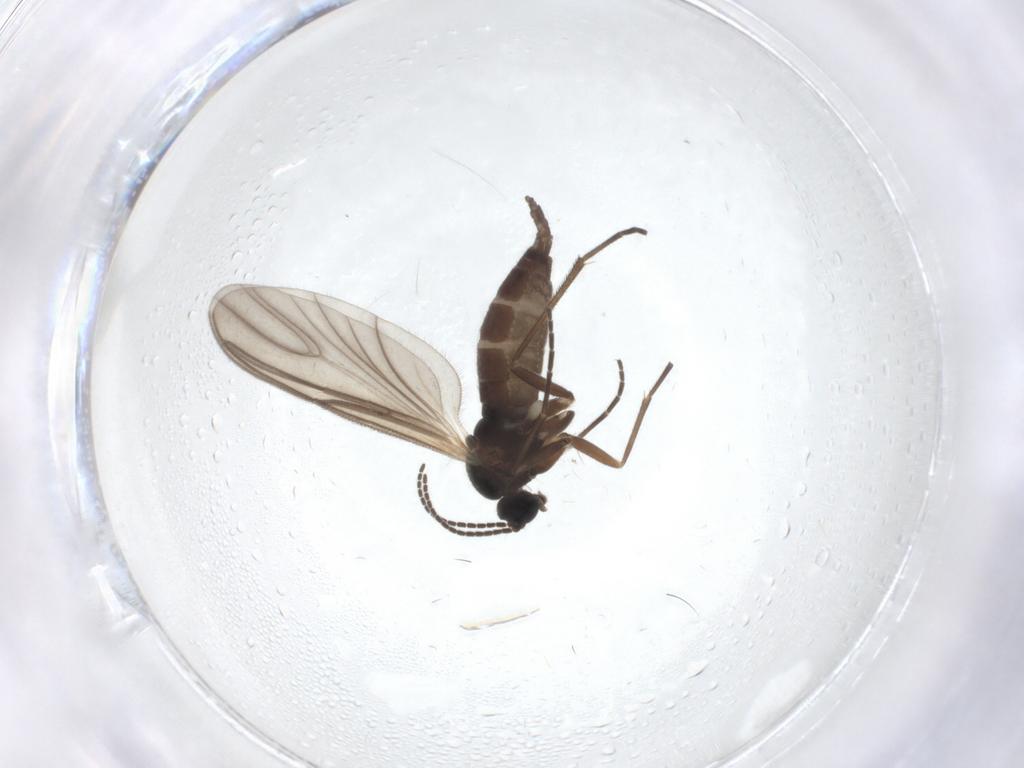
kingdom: Animalia
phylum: Arthropoda
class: Insecta
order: Diptera
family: Sciaridae
